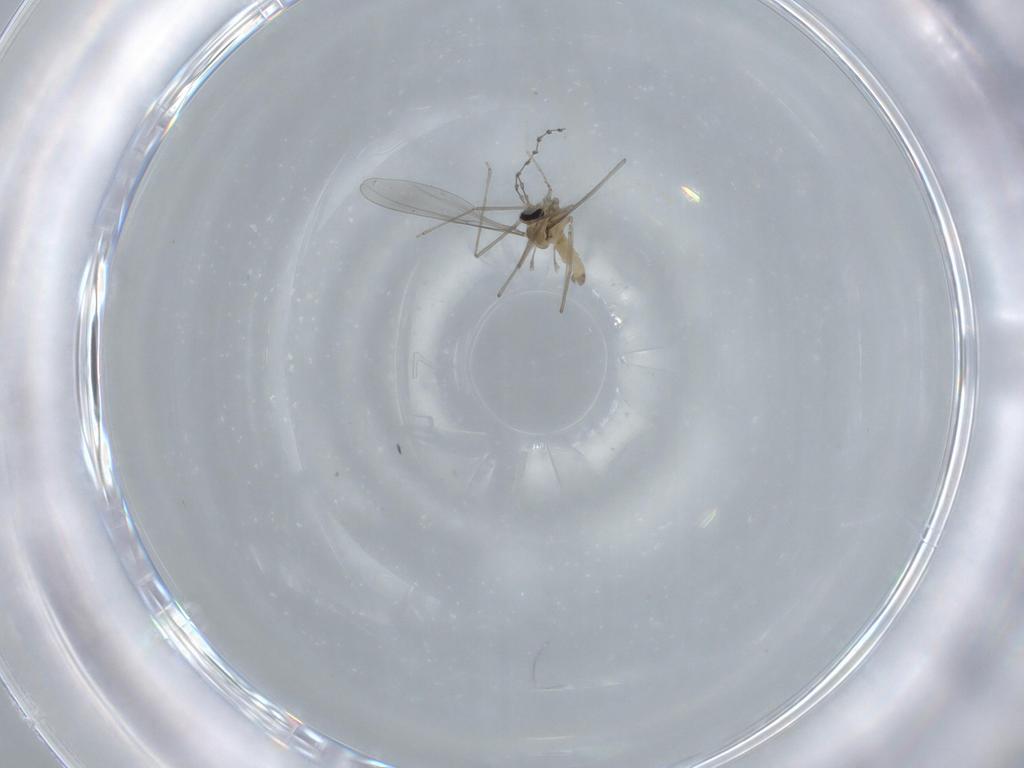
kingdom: Animalia
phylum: Arthropoda
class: Insecta
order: Diptera
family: Cecidomyiidae
